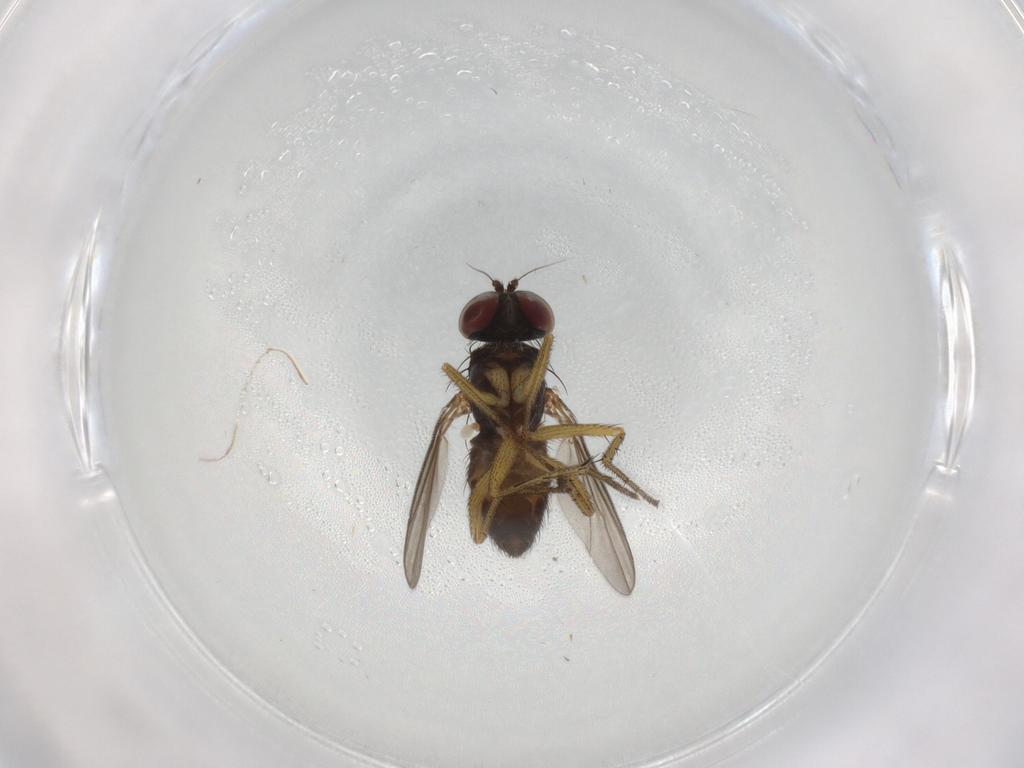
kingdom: Animalia
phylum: Arthropoda
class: Insecta
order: Diptera
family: Dolichopodidae
